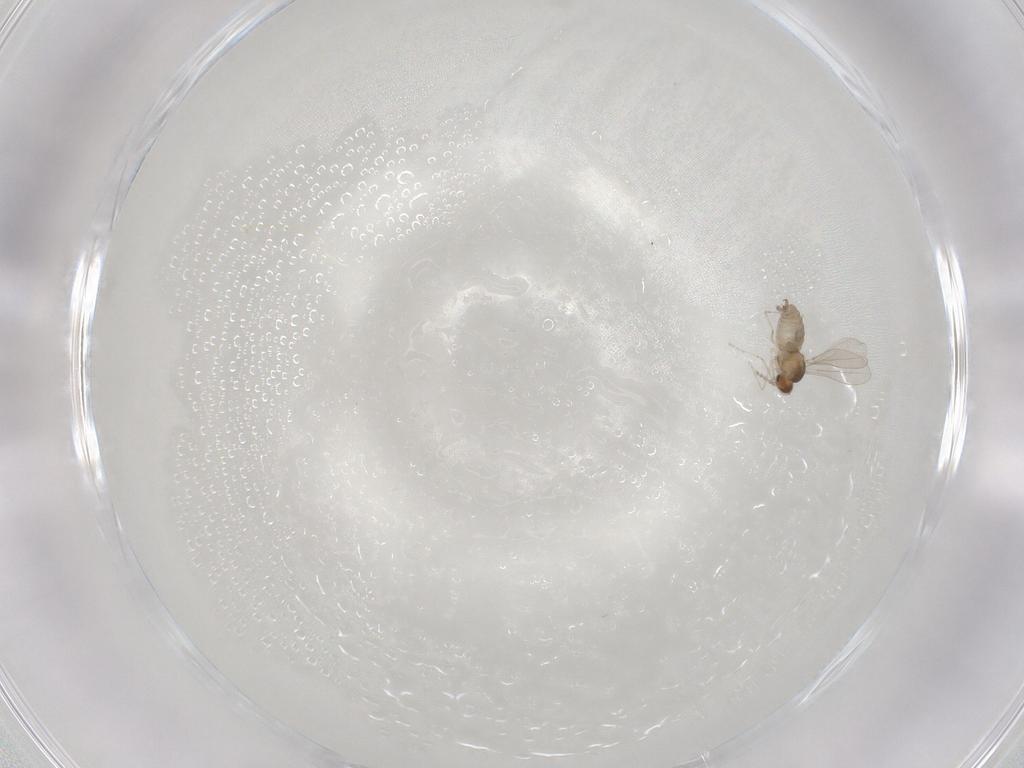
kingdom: Animalia
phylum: Arthropoda
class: Insecta
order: Diptera
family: Cecidomyiidae
